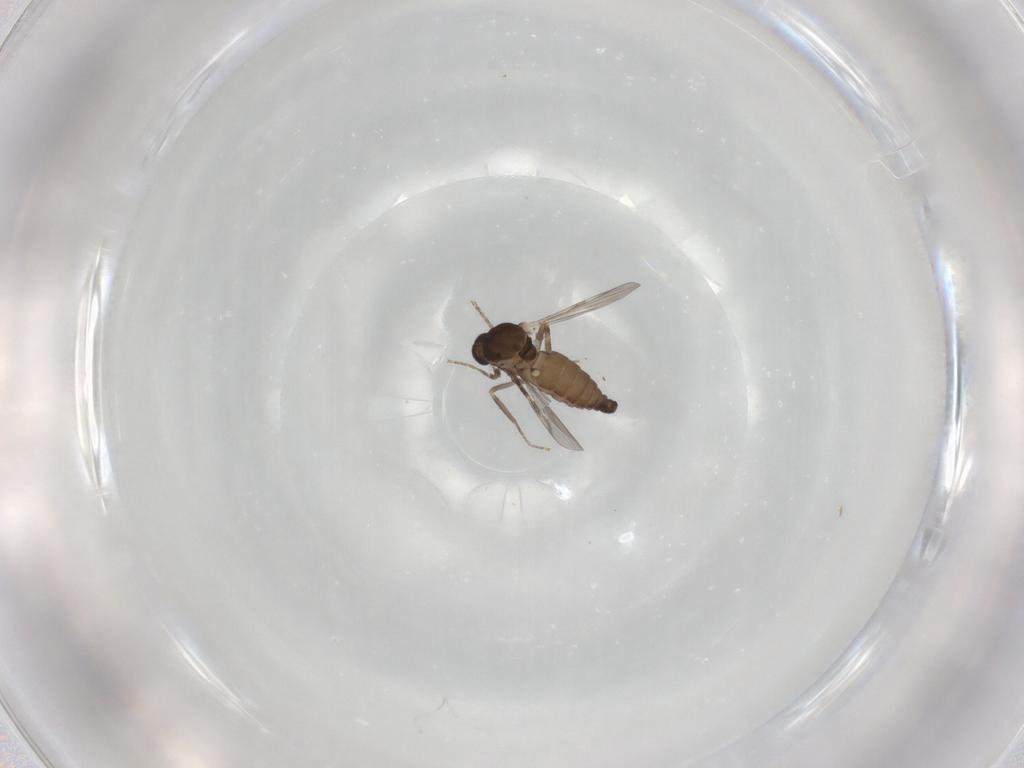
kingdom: Animalia
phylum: Arthropoda
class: Insecta
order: Diptera
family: Ceratopogonidae
